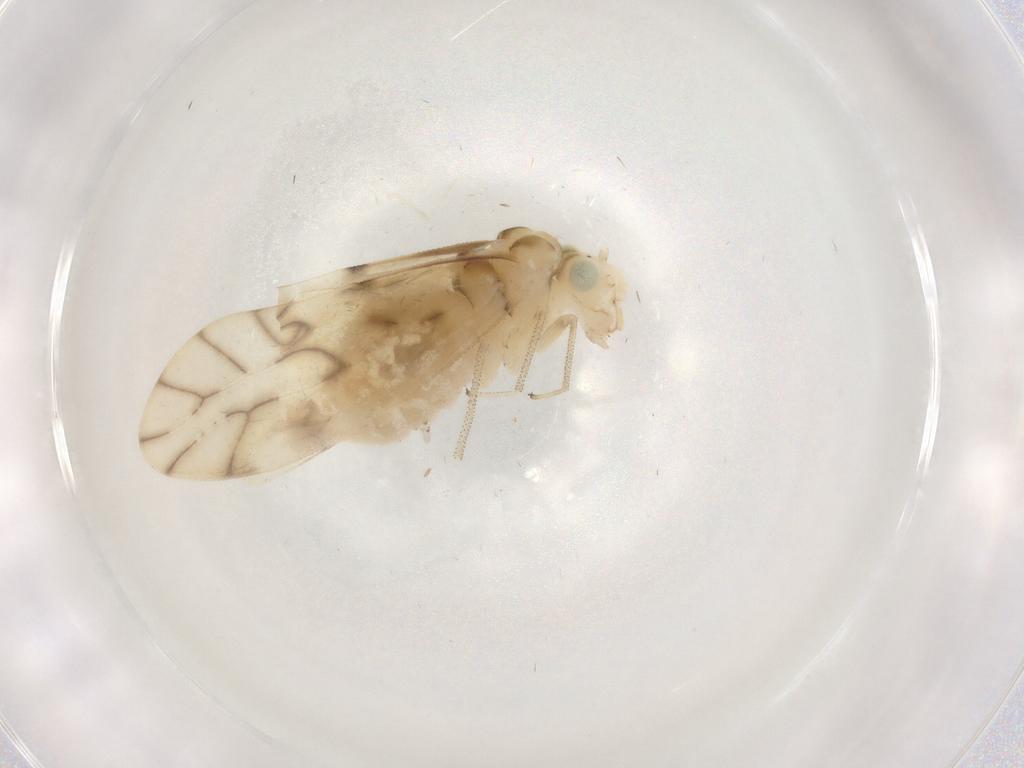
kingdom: Animalia
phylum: Arthropoda
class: Insecta
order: Psocodea
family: Caeciliusidae
